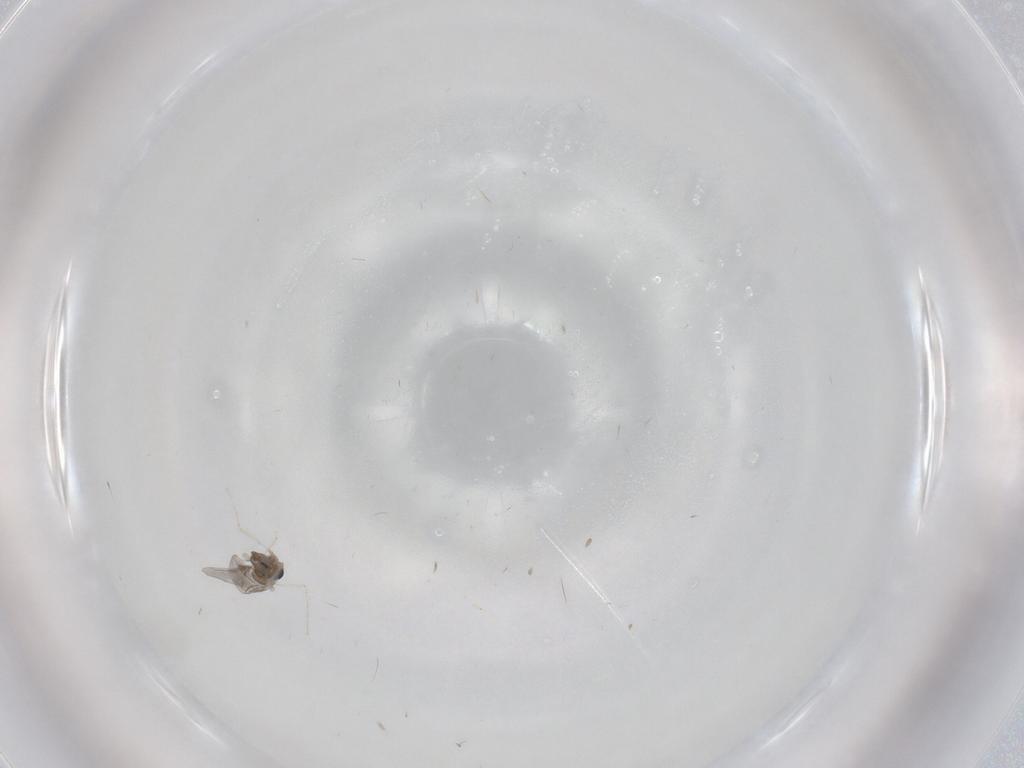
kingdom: Animalia
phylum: Arthropoda
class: Insecta
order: Diptera
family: Cecidomyiidae
